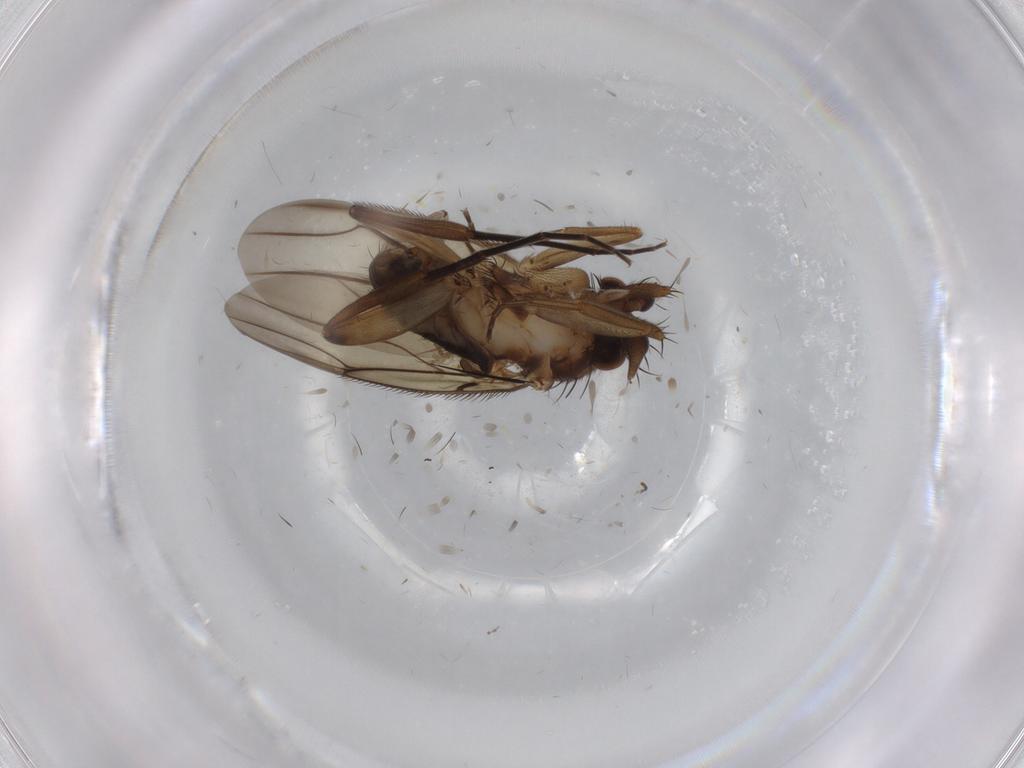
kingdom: Animalia
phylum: Arthropoda
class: Insecta
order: Diptera
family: Phoridae
